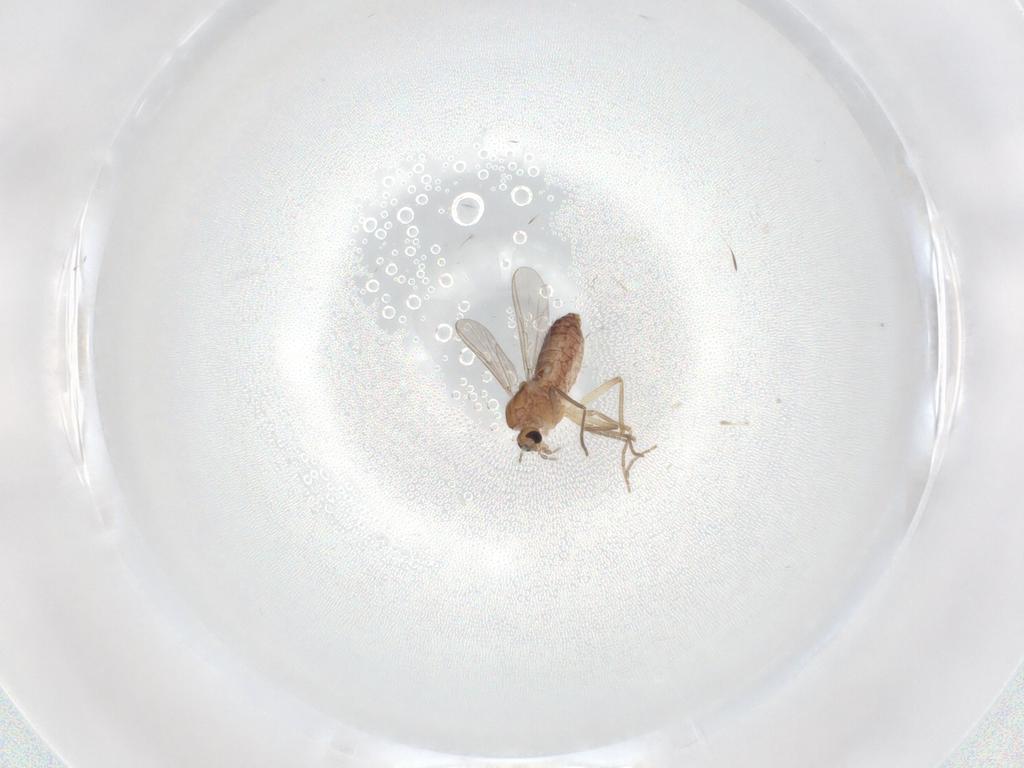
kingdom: Animalia
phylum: Arthropoda
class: Insecta
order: Diptera
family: Chironomidae
